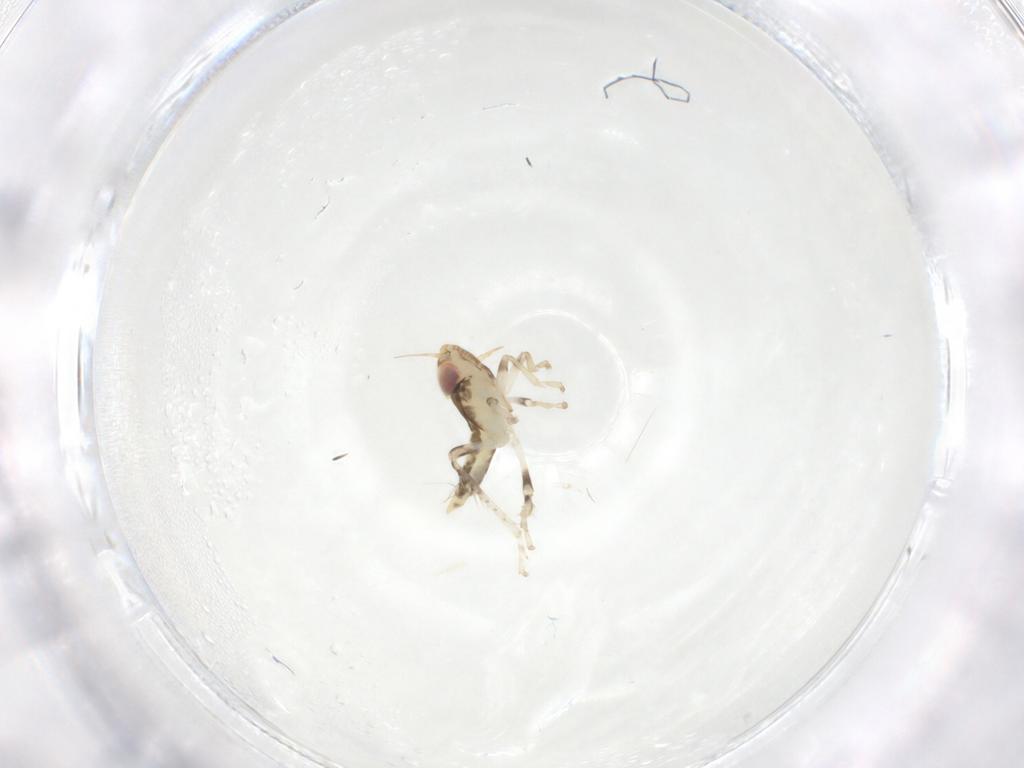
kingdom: Animalia
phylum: Arthropoda
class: Insecta
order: Hemiptera
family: Cicadellidae
